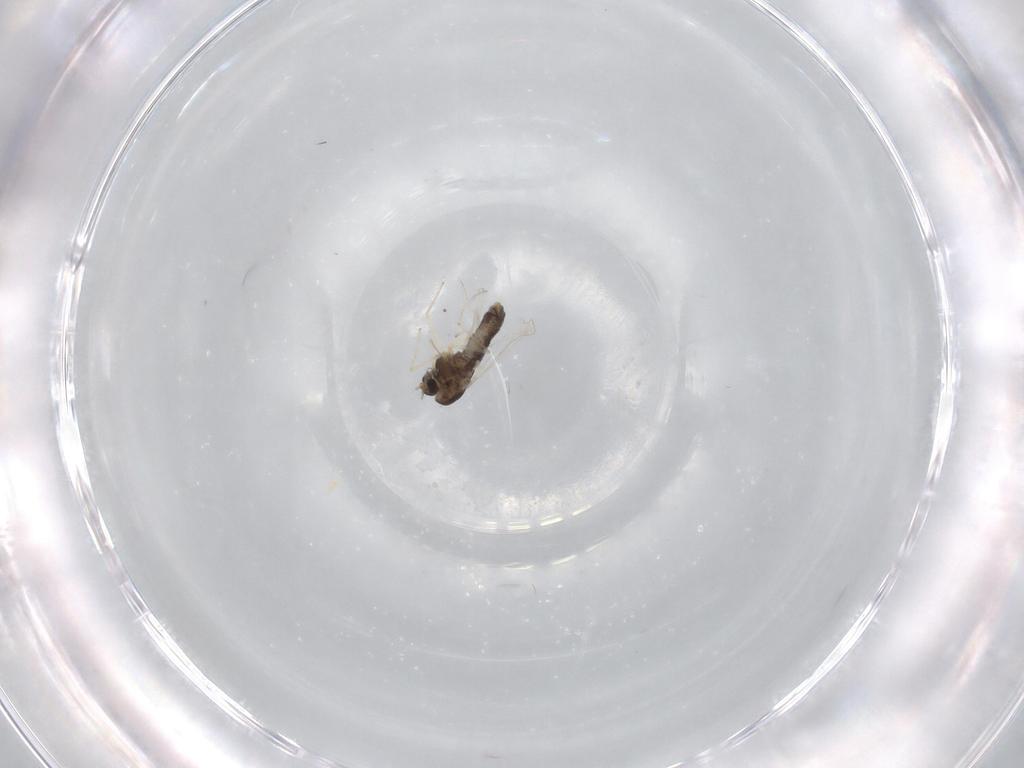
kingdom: Animalia
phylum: Arthropoda
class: Insecta
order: Diptera
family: Chironomidae
